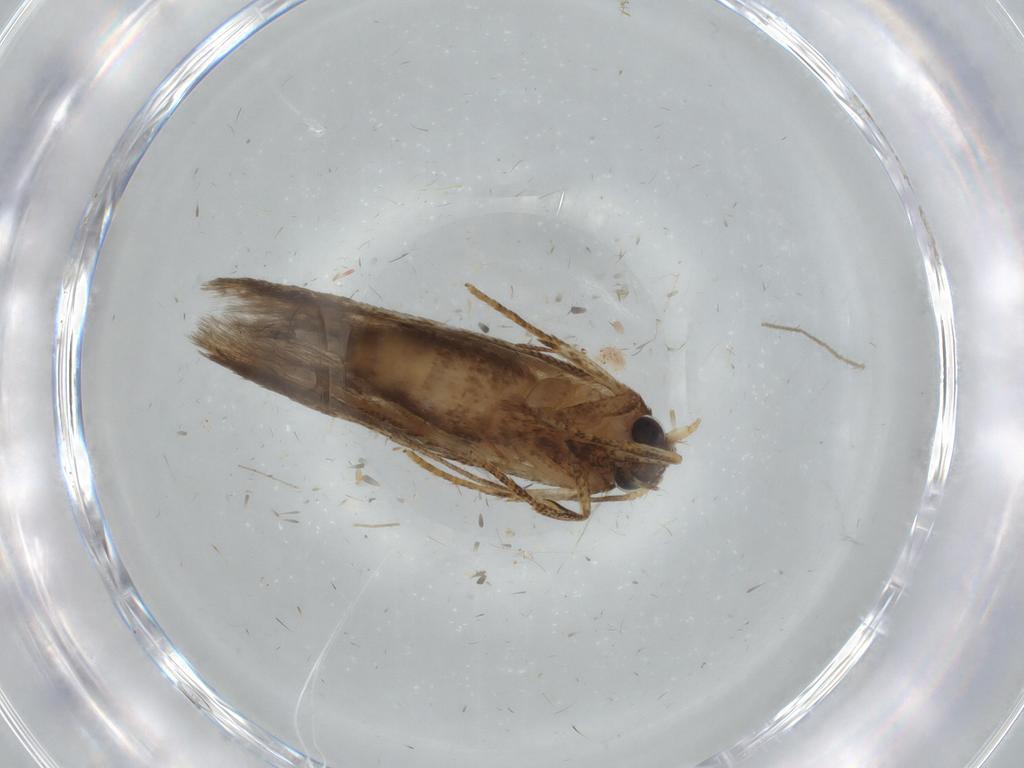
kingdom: Animalia
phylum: Arthropoda
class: Insecta
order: Lepidoptera
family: Blastobasidae
